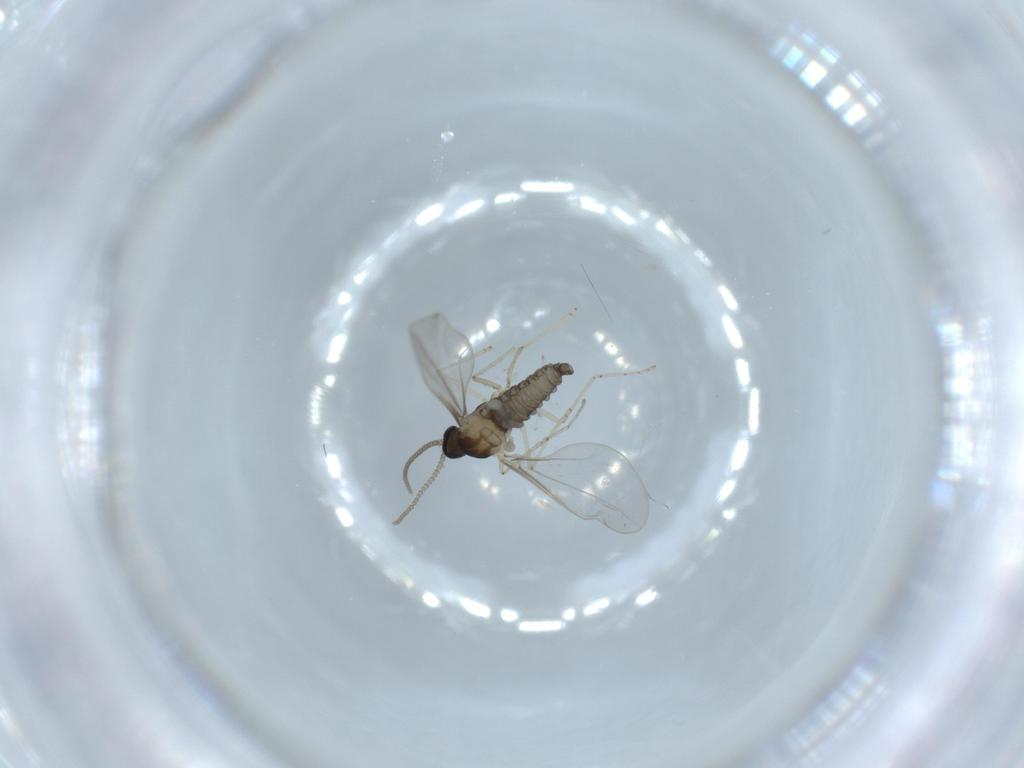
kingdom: Animalia
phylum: Arthropoda
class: Insecta
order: Diptera
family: Cecidomyiidae
